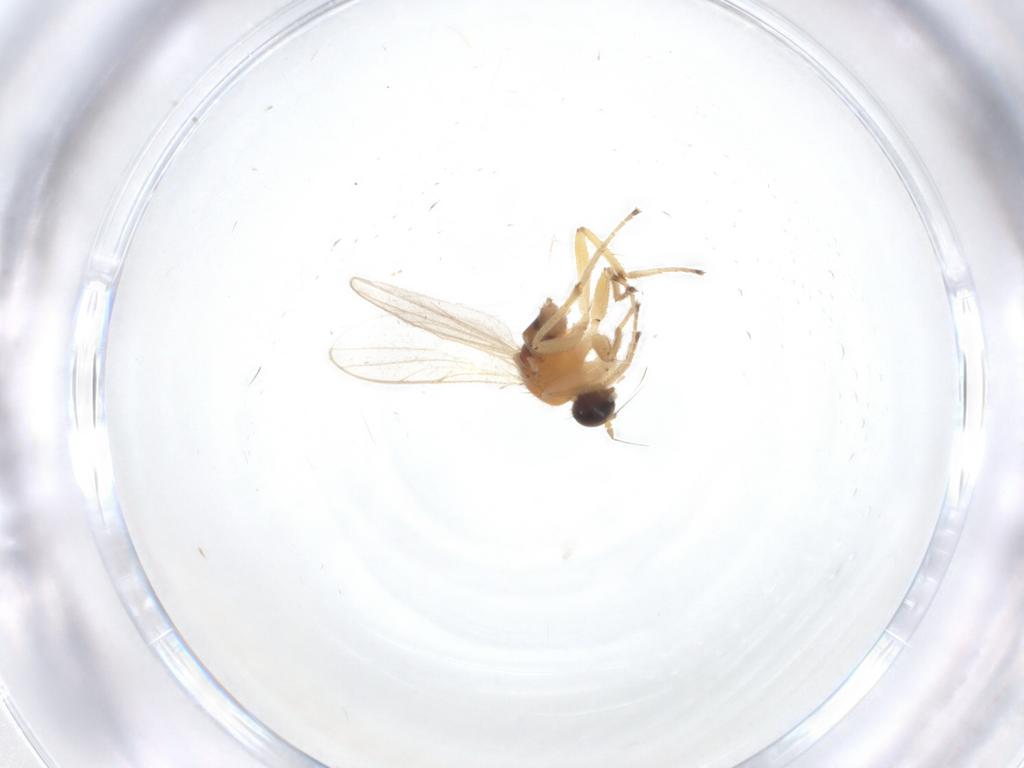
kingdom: Animalia
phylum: Arthropoda
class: Insecta
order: Diptera
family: Hybotidae
